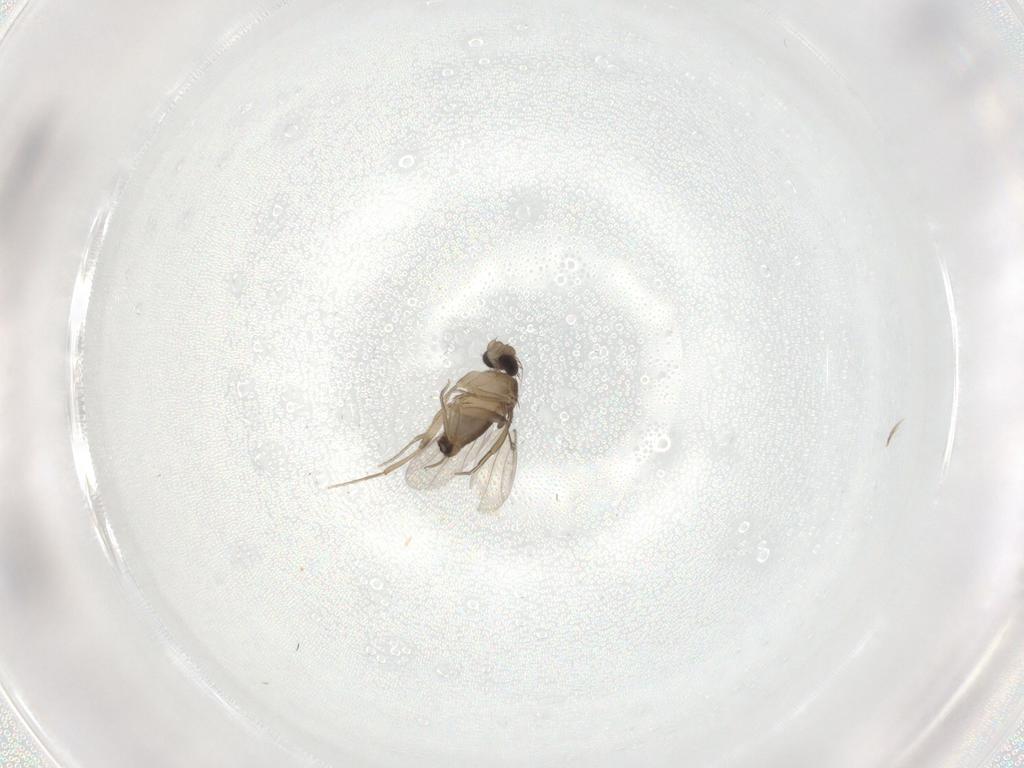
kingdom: Animalia
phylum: Arthropoda
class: Insecta
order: Diptera
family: Phoridae
